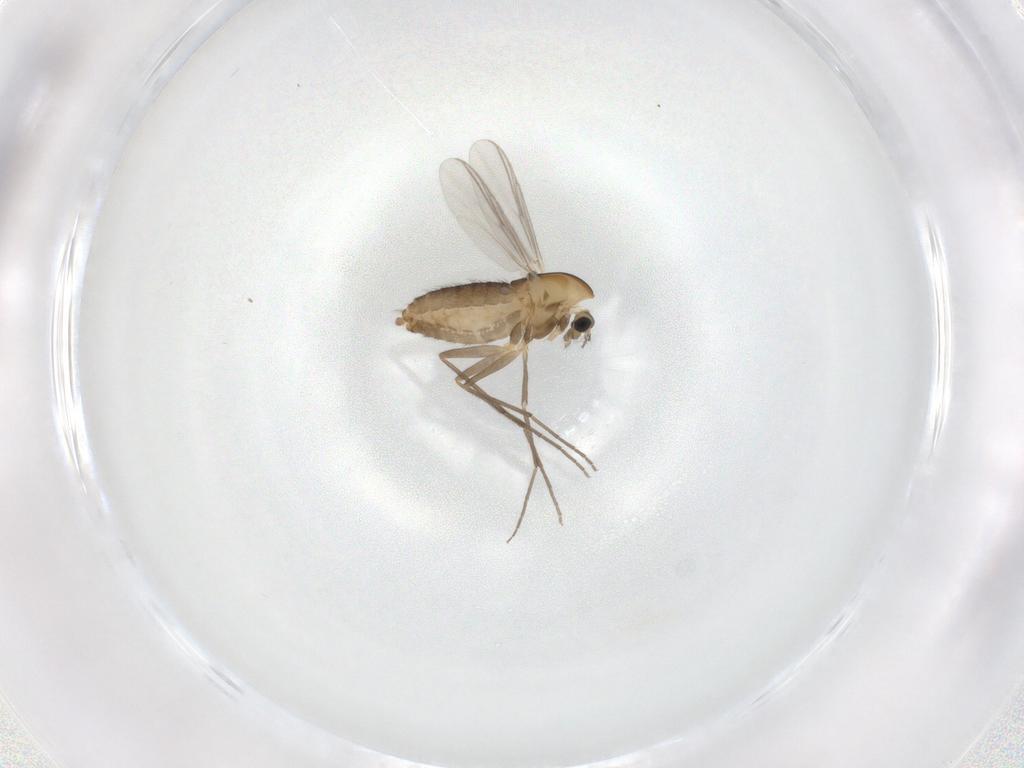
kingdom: Animalia
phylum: Arthropoda
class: Insecta
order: Diptera
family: Chironomidae
